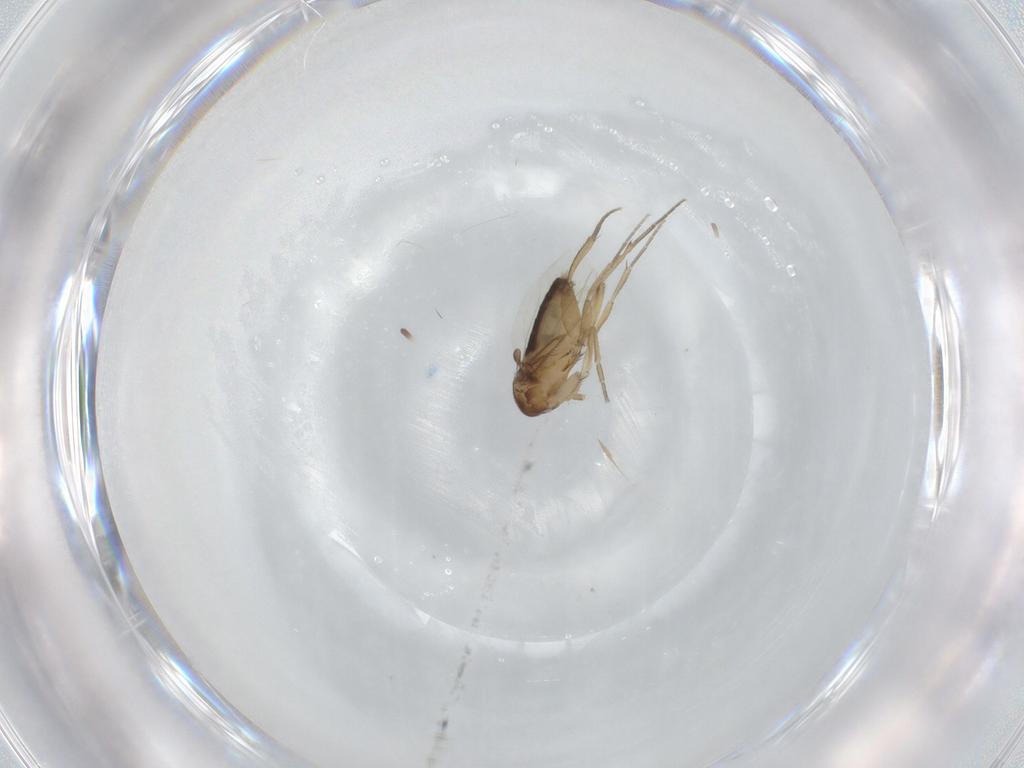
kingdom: Animalia
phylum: Arthropoda
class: Insecta
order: Diptera
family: Phoridae
